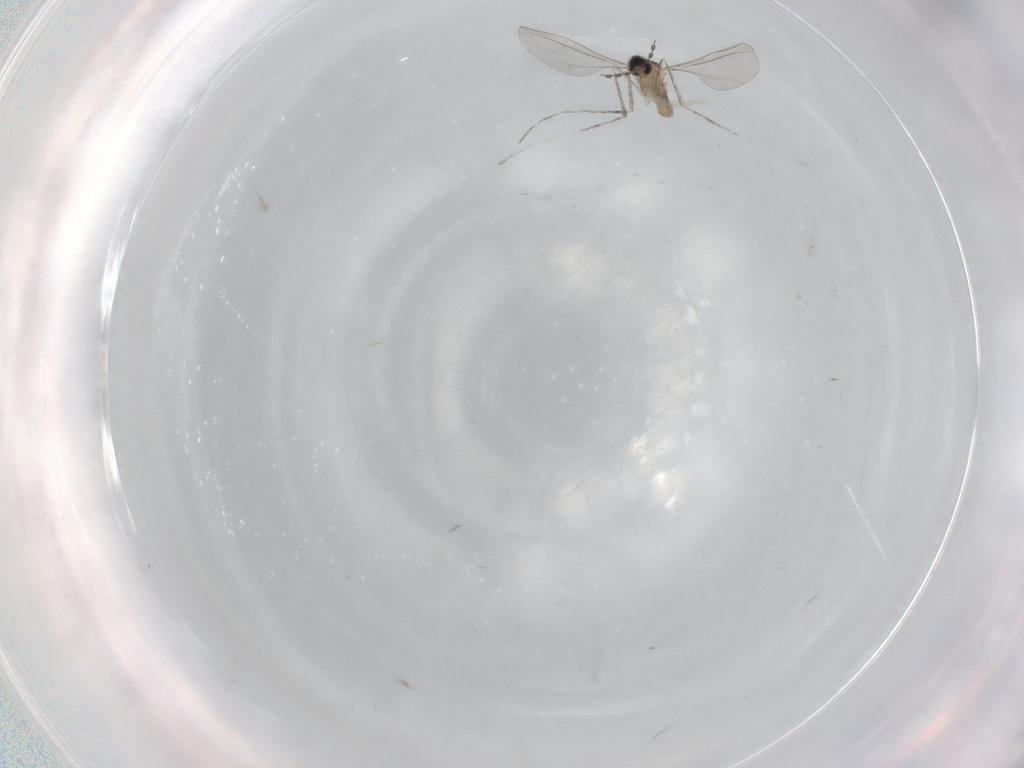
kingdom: Animalia
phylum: Arthropoda
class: Insecta
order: Diptera
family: Cecidomyiidae
